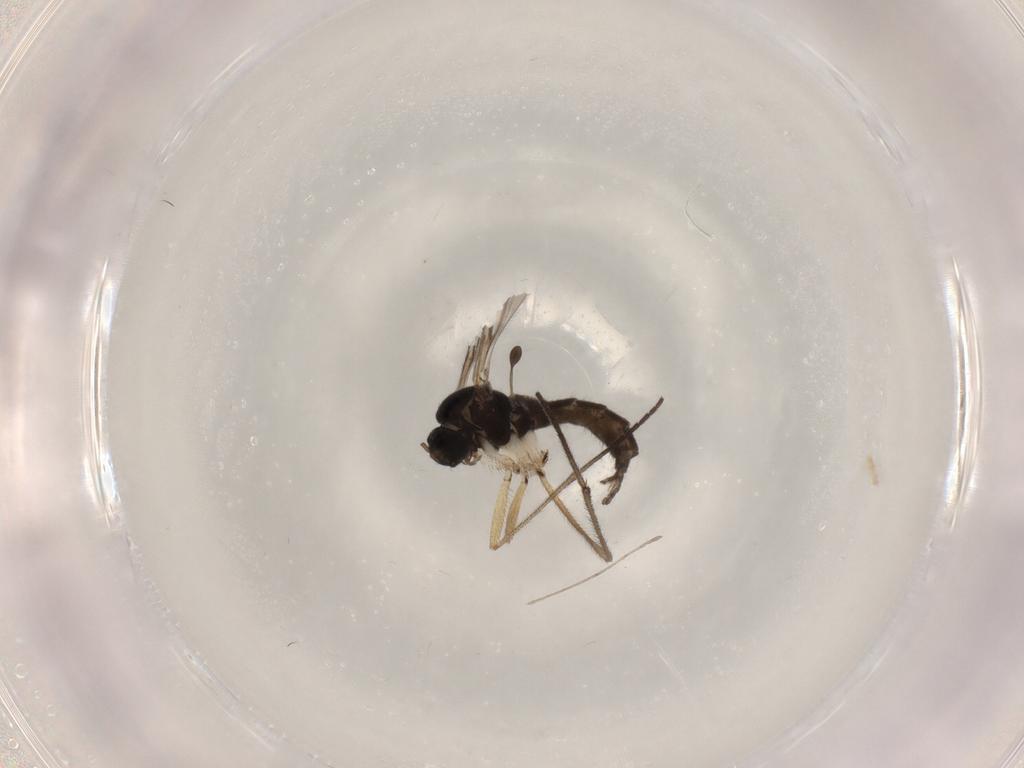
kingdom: Animalia
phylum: Arthropoda
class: Insecta
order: Diptera
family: Sciaridae
